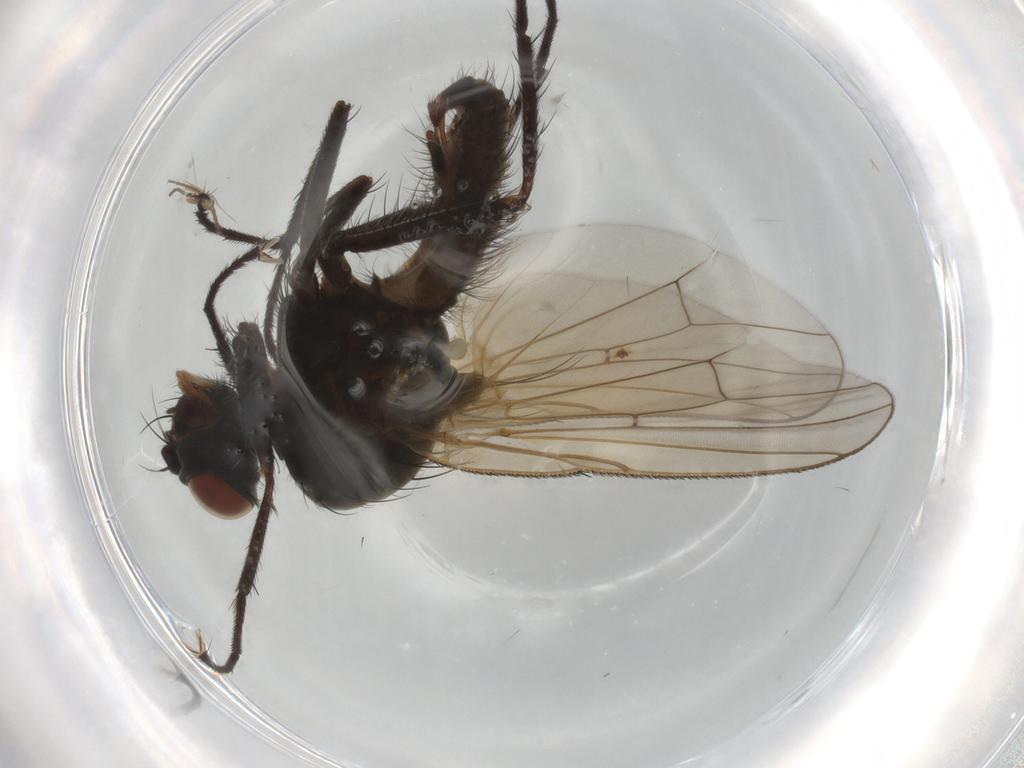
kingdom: Animalia
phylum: Arthropoda
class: Insecta
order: Diptera
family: Anthomyiidae
